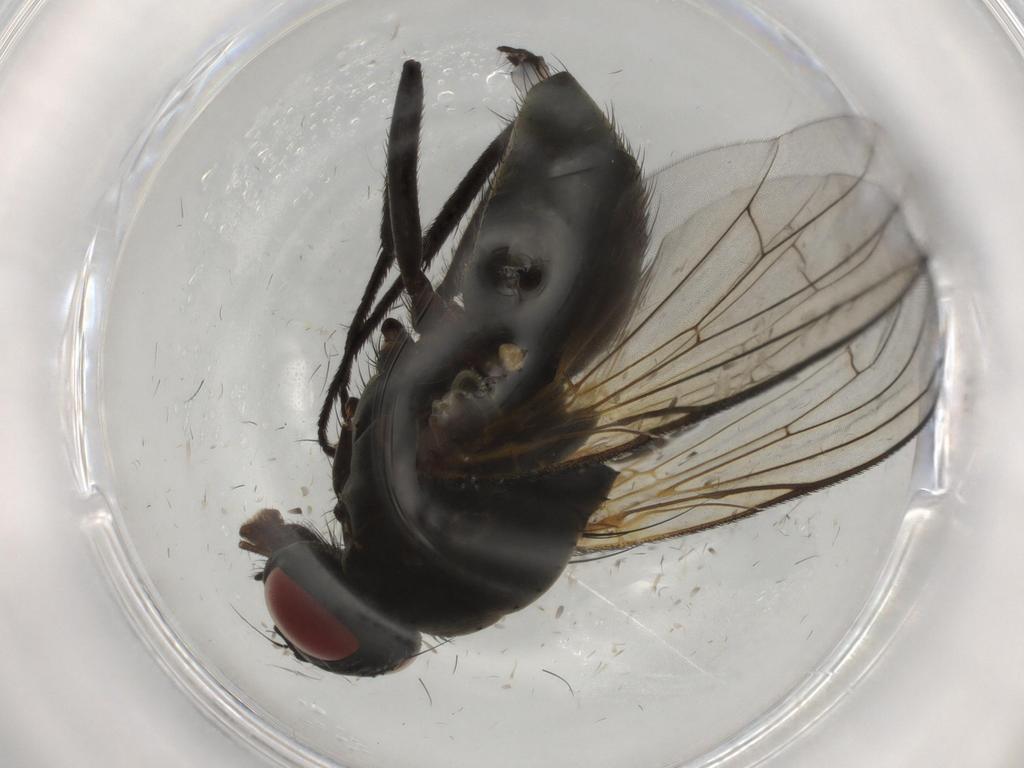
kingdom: Animalia
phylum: Arthropoda
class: Insecta
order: Diptera
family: Muscidae
